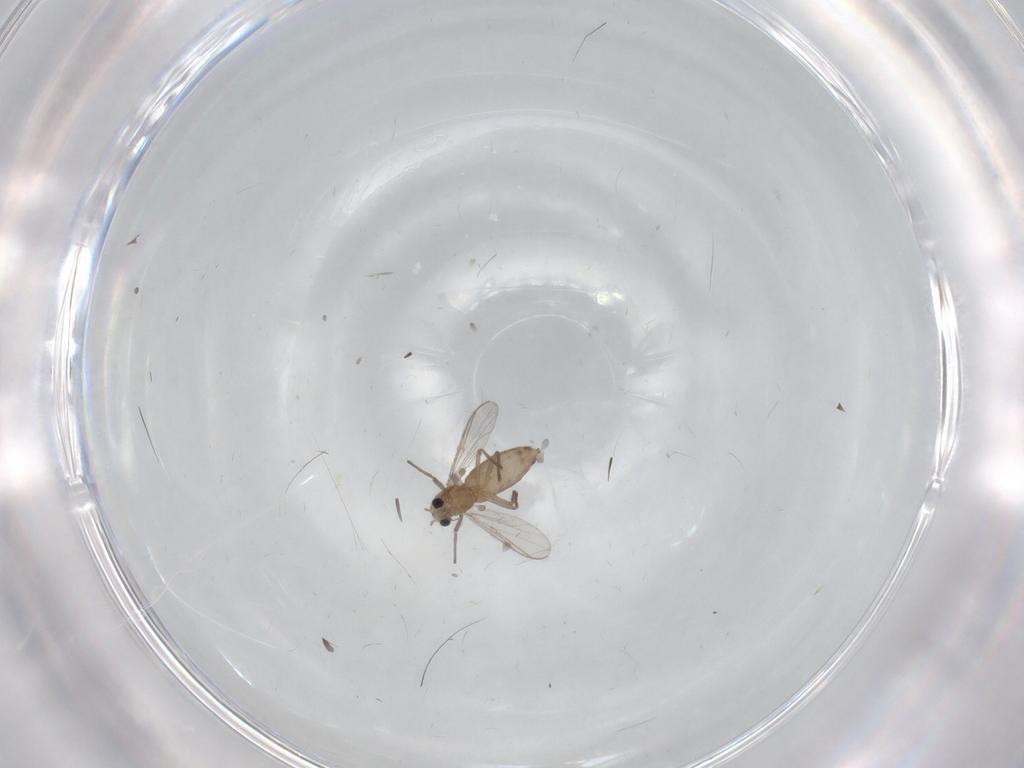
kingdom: Animalia
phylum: Arthropoda
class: Insecta
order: Diptera
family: Chironomidae
